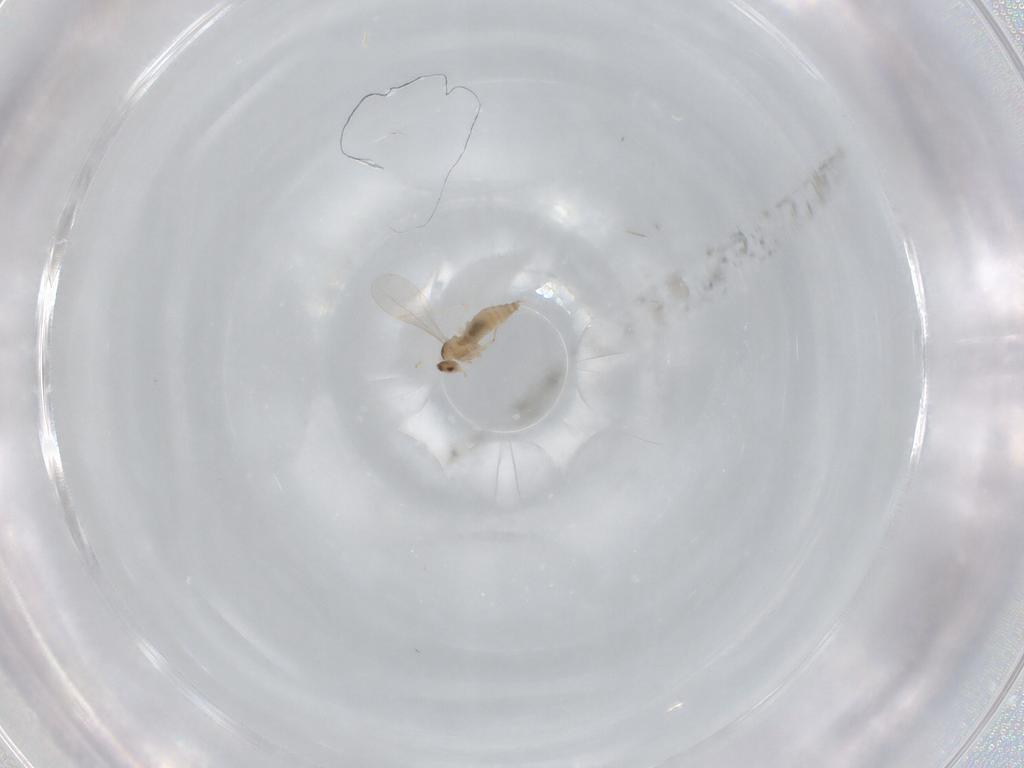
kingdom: Animalia
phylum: Arthropoda
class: Insecta
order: Diptera
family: Cecidomyiidae
